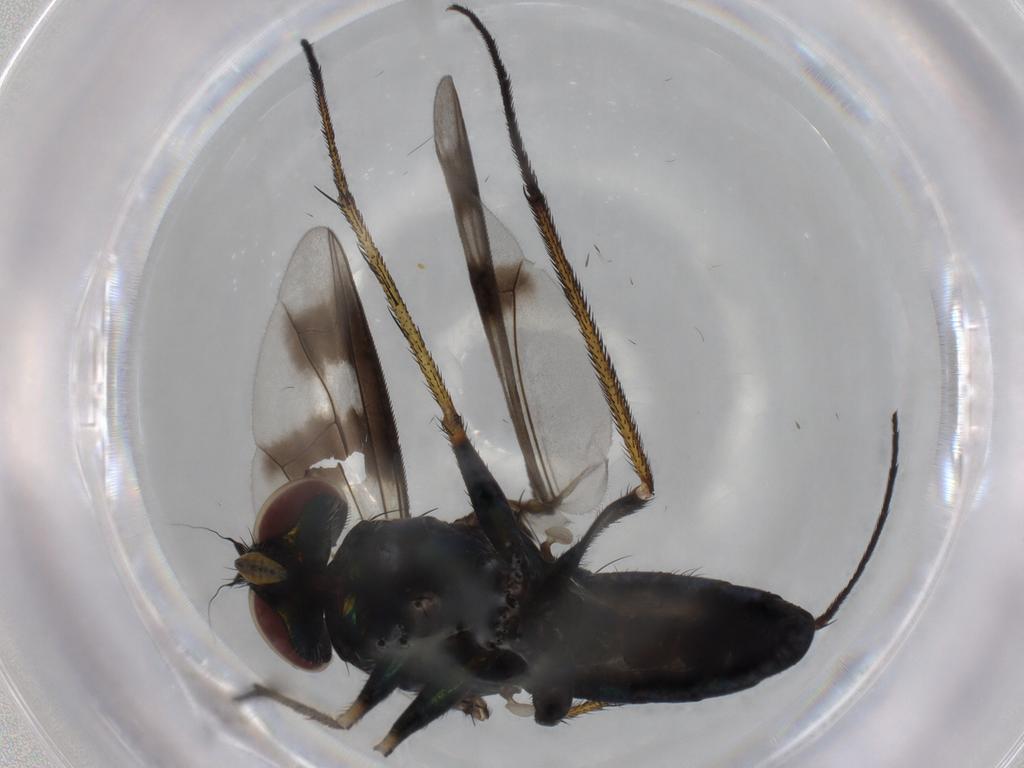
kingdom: Animalia
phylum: Arthropoda
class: Insecta
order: Diptera
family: Dolichopodidae
